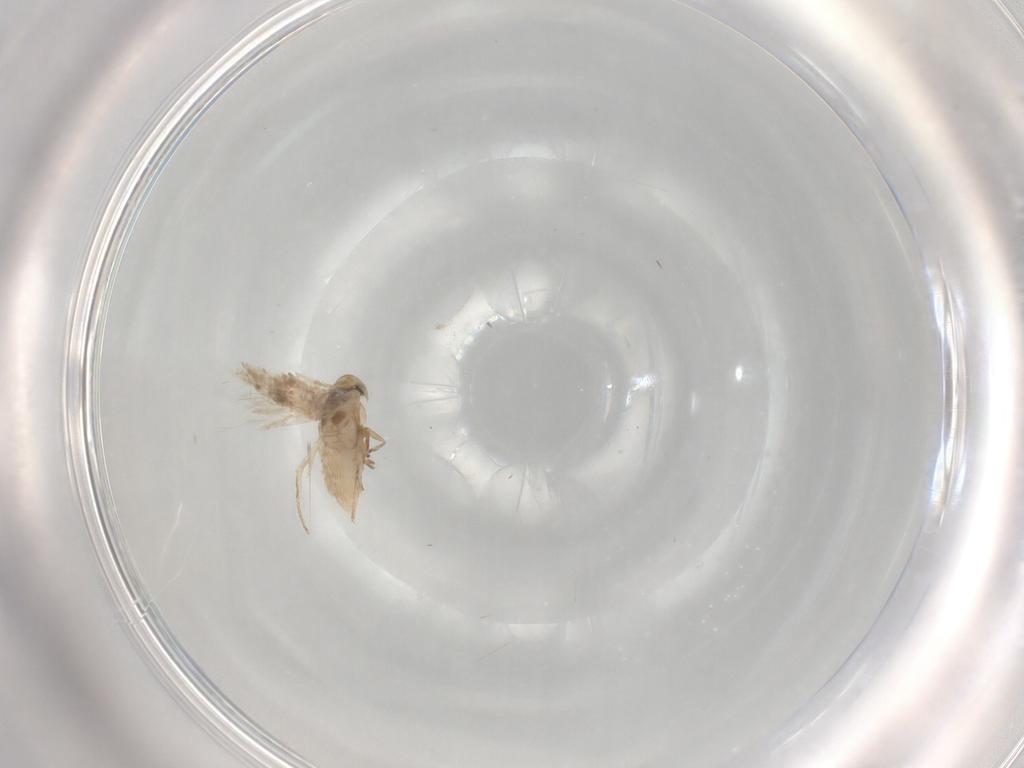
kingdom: Animalia
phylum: Arthropoda
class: Insecta
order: Lepidoptera
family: Nymphalidae
